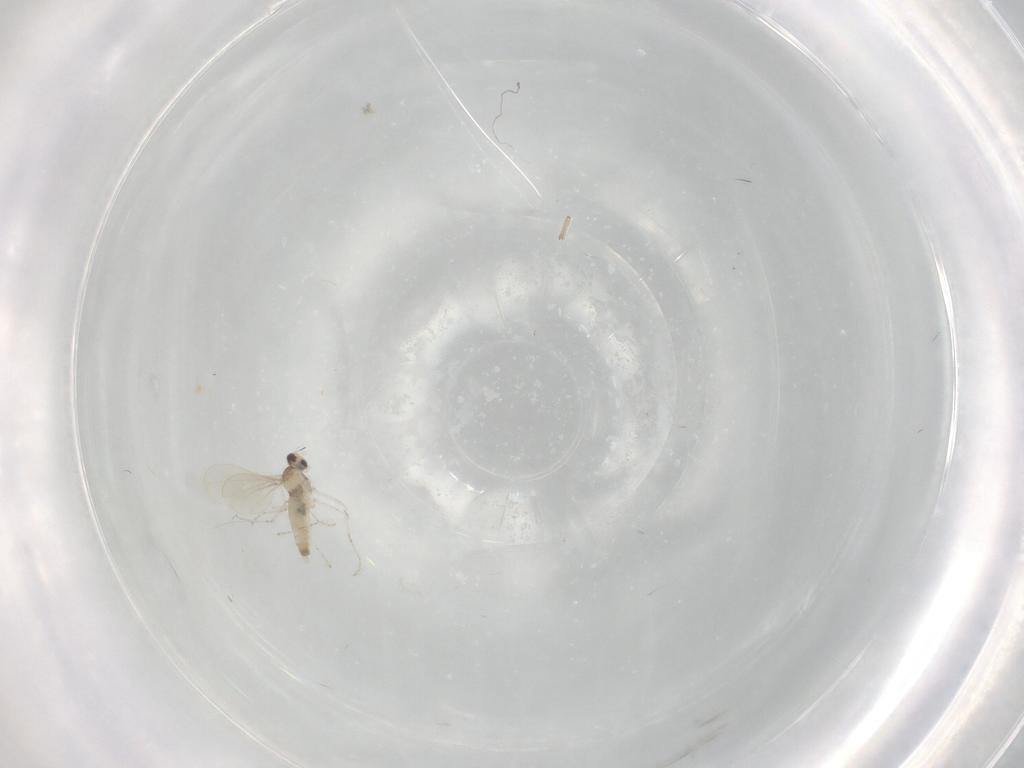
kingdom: Animalia
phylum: Arthropoda
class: Insecta
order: Diptera
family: Cecidomyiidae
